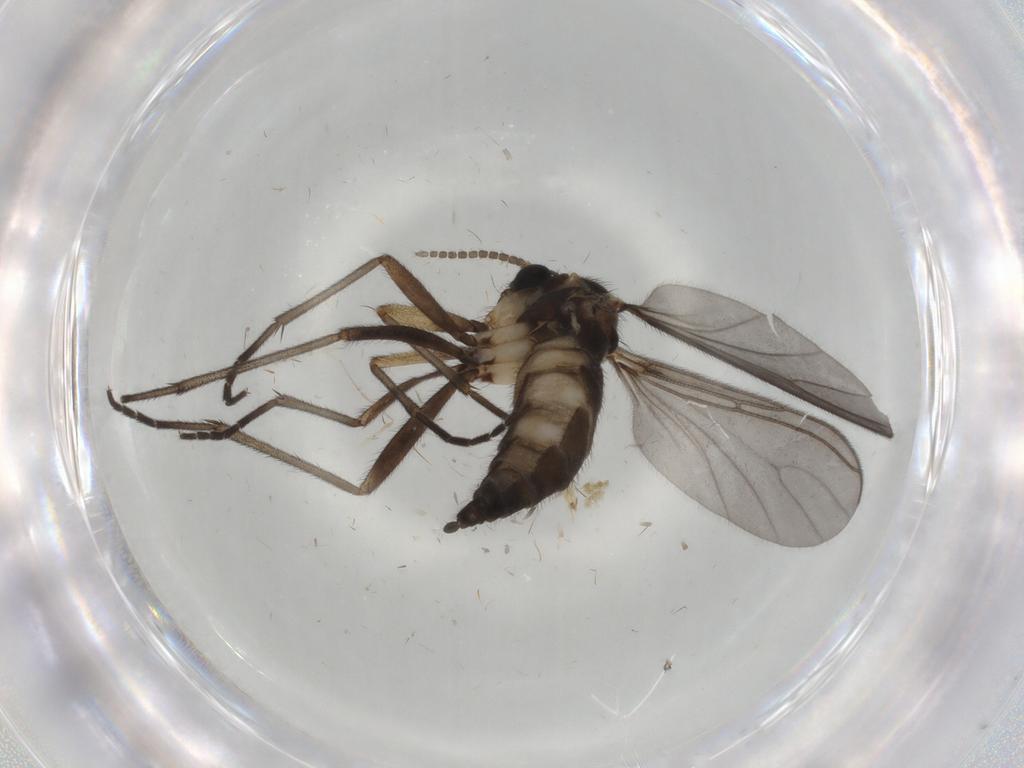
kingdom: Animalia
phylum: Arthropoda
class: Insecta
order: Diptera
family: Sciaridae
